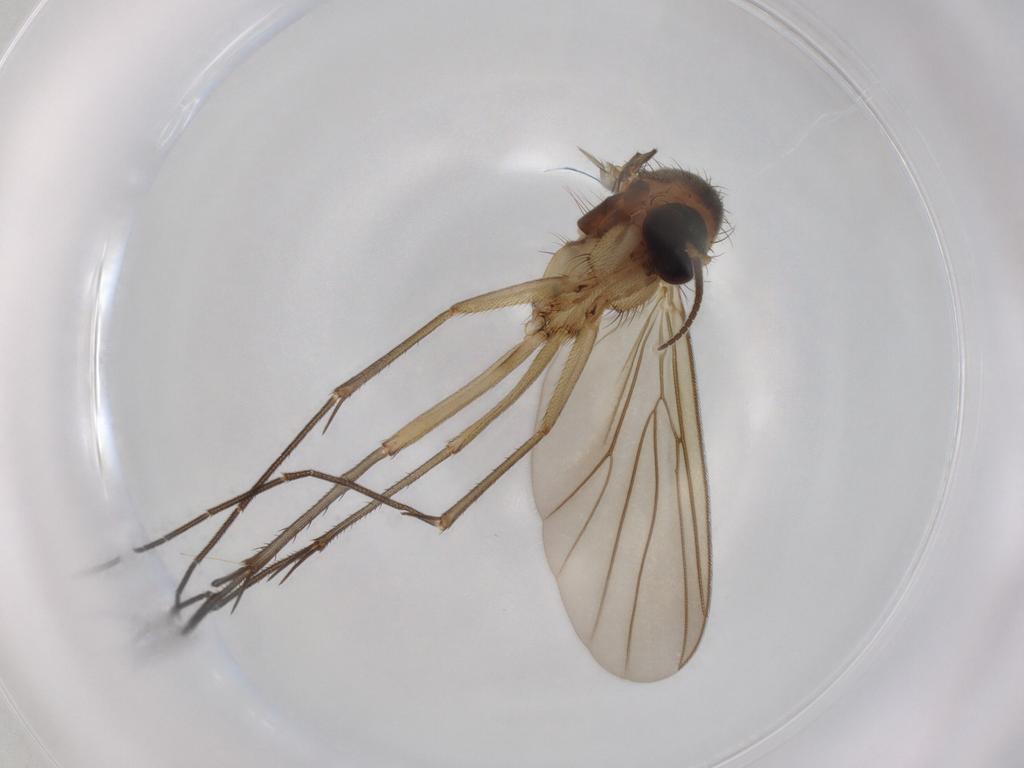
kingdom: Animalia
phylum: Arthropoda
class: Insecta
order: Diptera
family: Mycetophilidae
